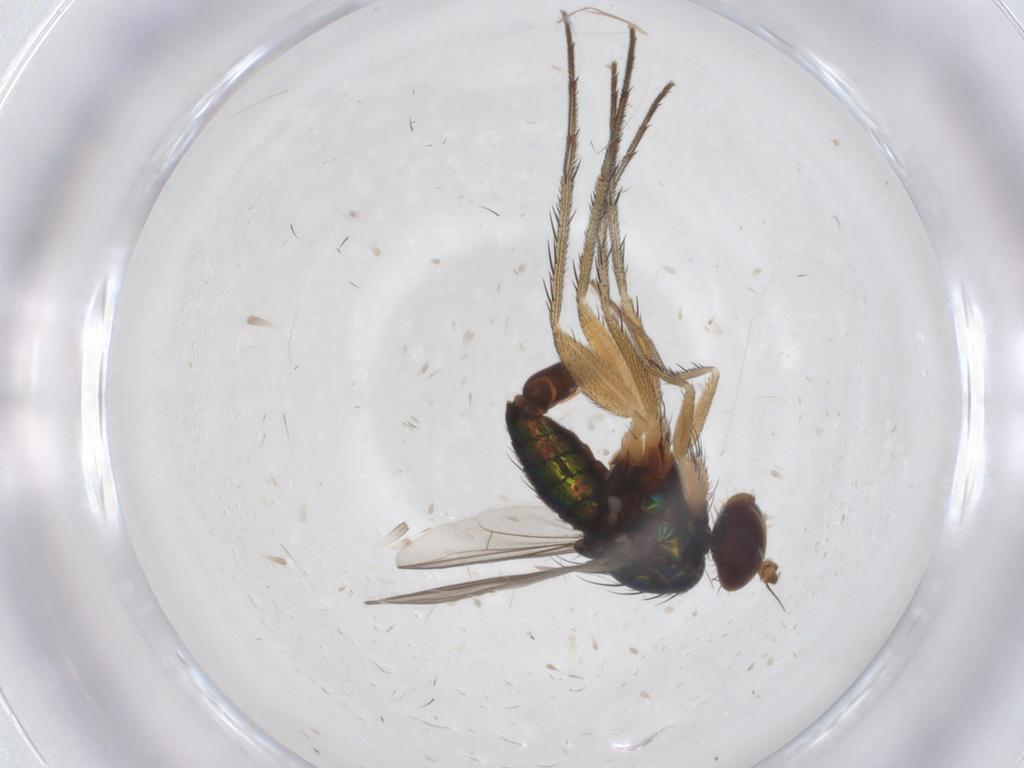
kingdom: Animalia
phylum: Arthropoda
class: Insecta
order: Diptera
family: Dolichopodidae
